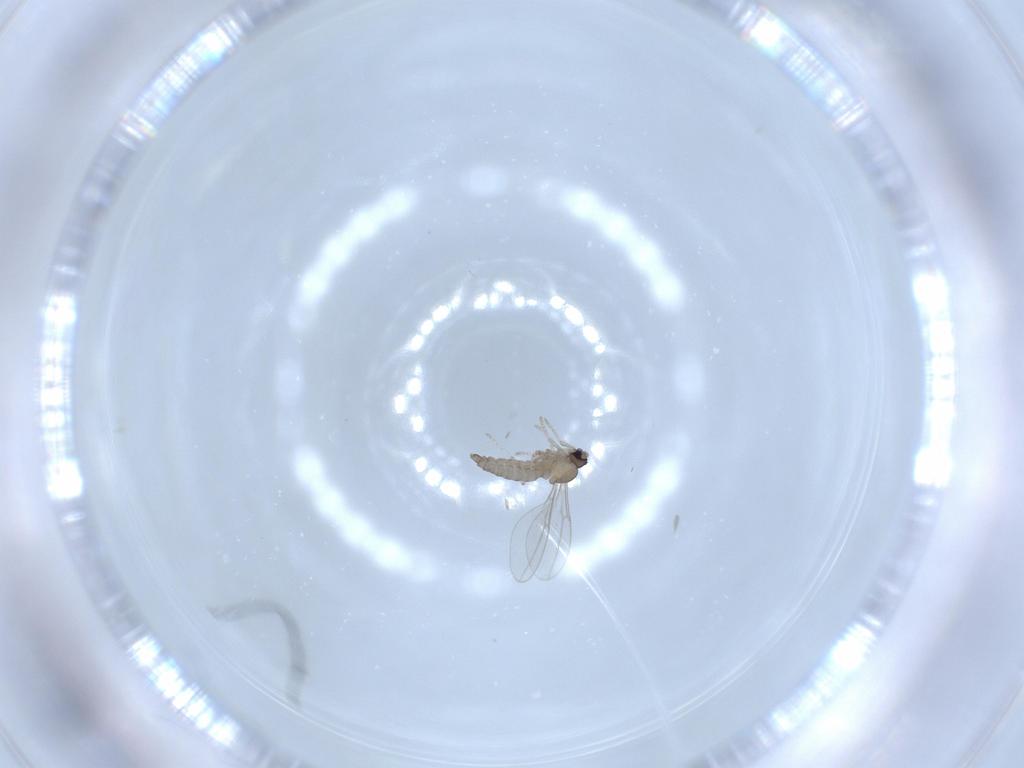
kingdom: Animalia
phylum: Arthropoda
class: Insecta
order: Diptera
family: Cecidomyiidae
